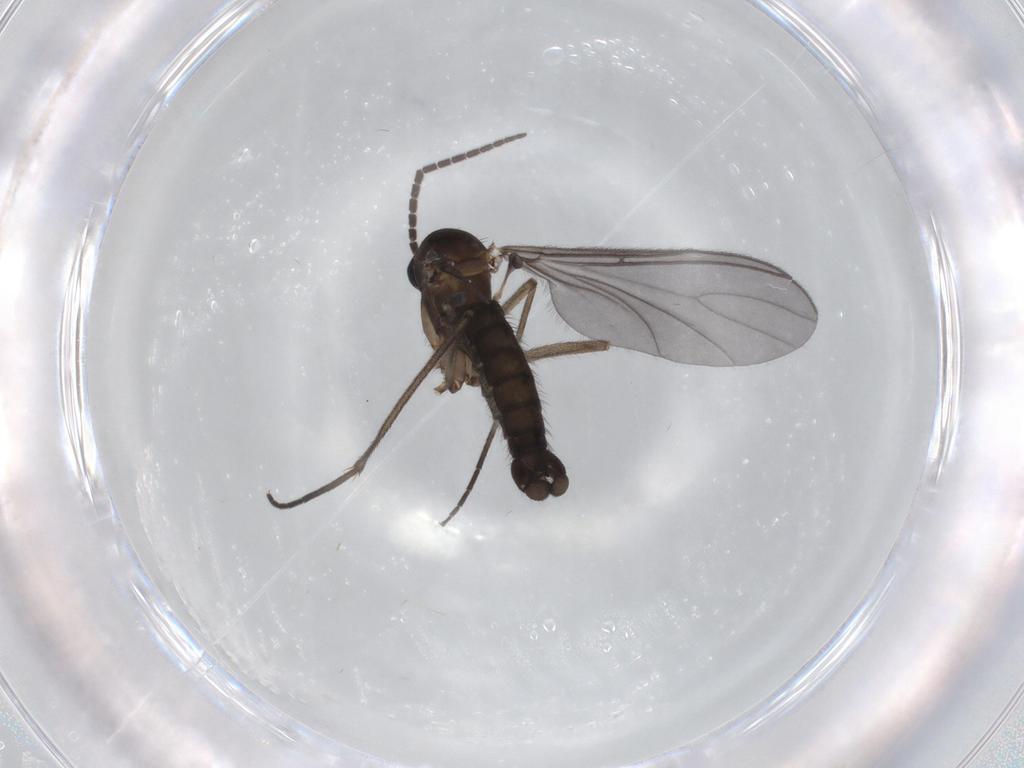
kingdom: Animalia
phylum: Arthropoda
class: Insecta
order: Diptera
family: Sciaridae
